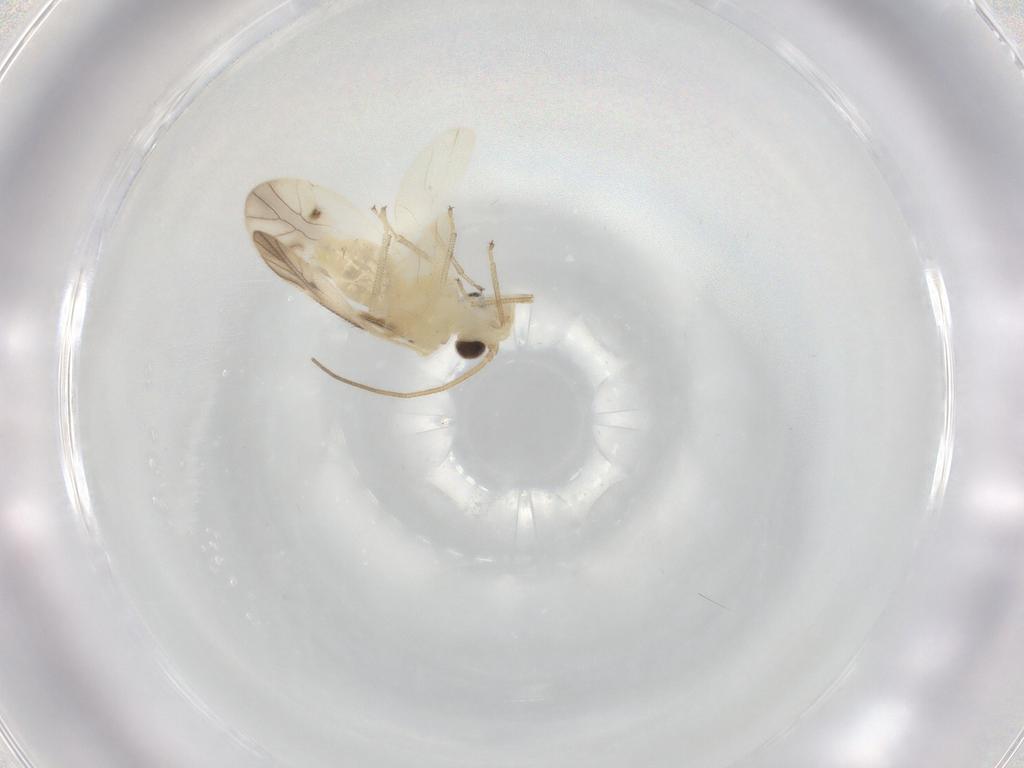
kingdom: Animalia
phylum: Arthropoda
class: Insecta
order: Psocodea
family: Caeciliusidae
